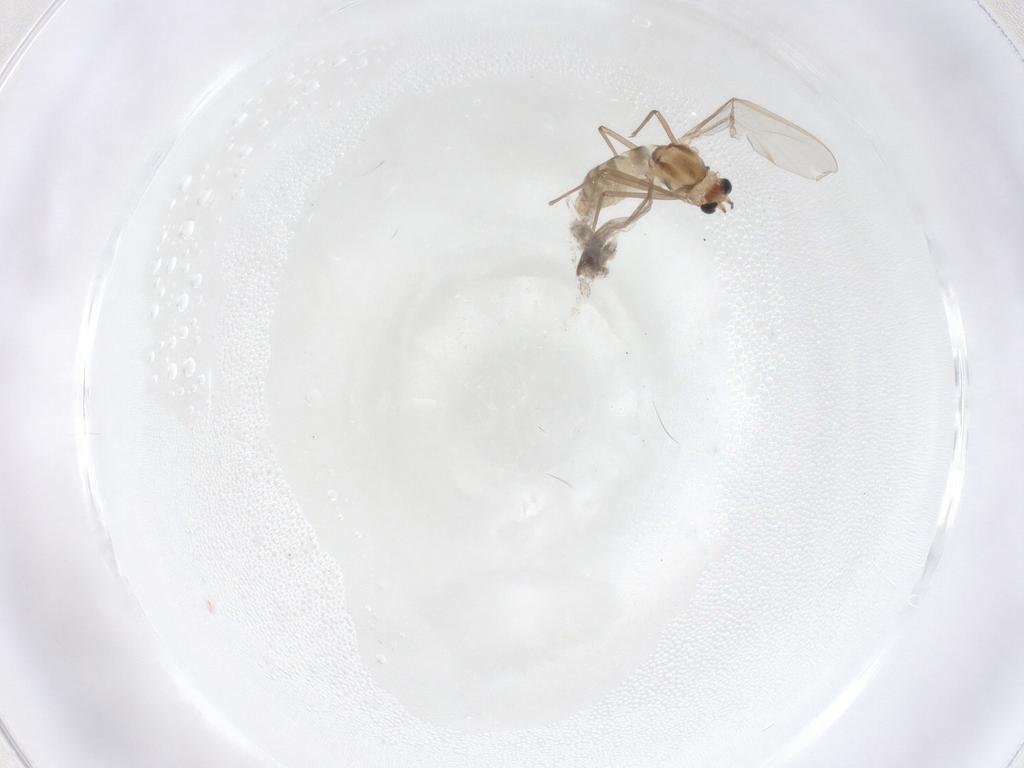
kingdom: Animalia
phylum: Arthropoda
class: Insecta
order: Diptera
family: Chironomidae
